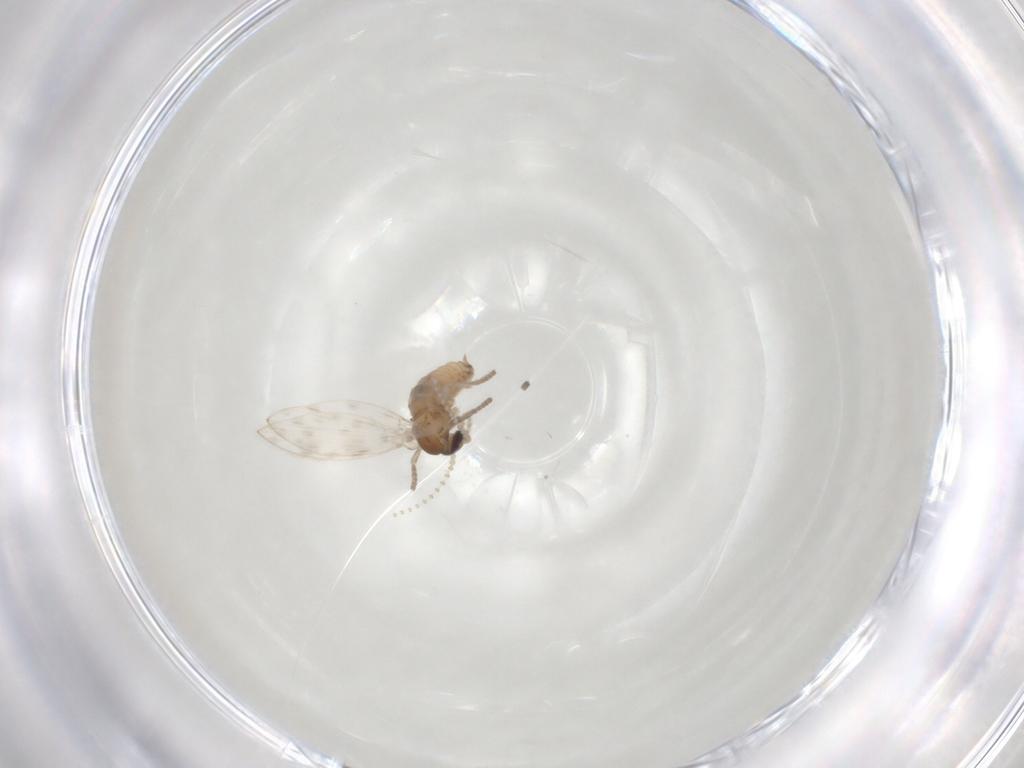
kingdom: Animalia
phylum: Arthropoda
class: Insecta
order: Diptera
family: Psychodidae
